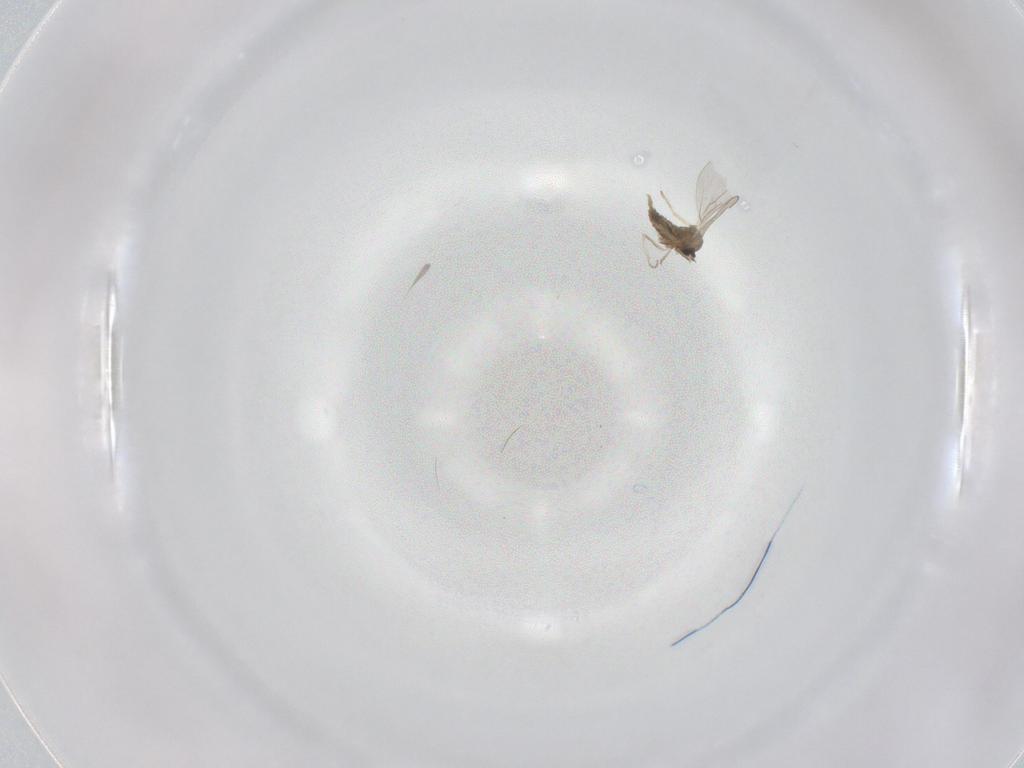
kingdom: Animalia
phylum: Arthropoda
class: Insecta
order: Diptera
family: Cecidomyiidae
